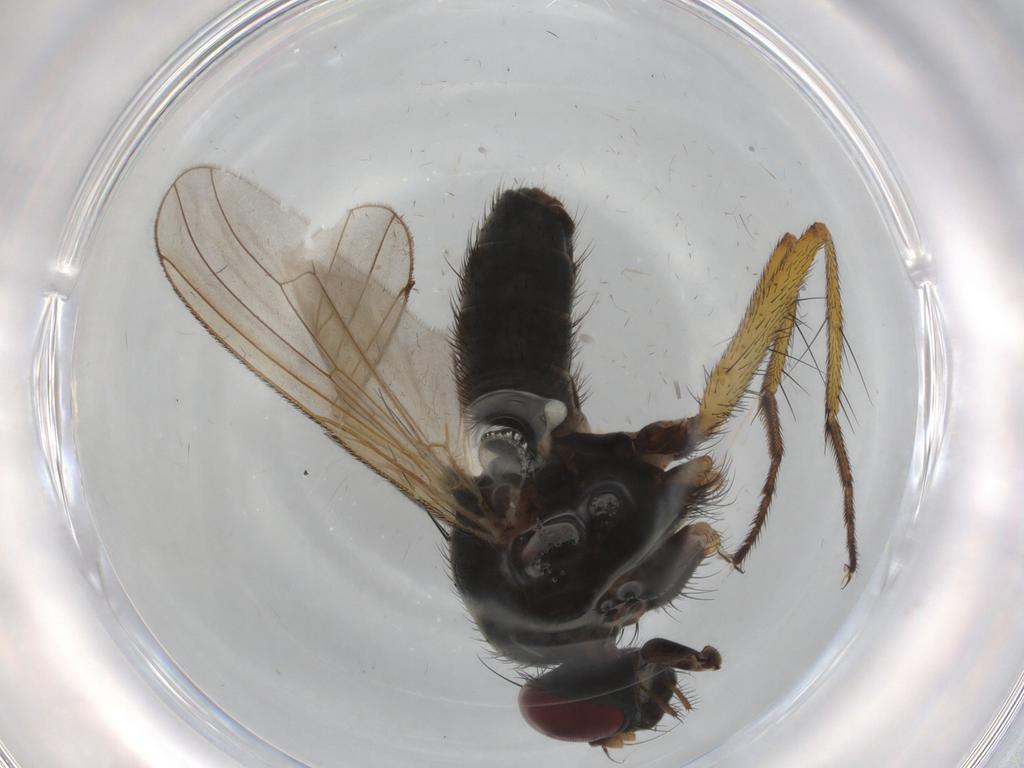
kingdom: Animalia
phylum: Arthropoda
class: Insecta
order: Diptera
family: Muscidae
